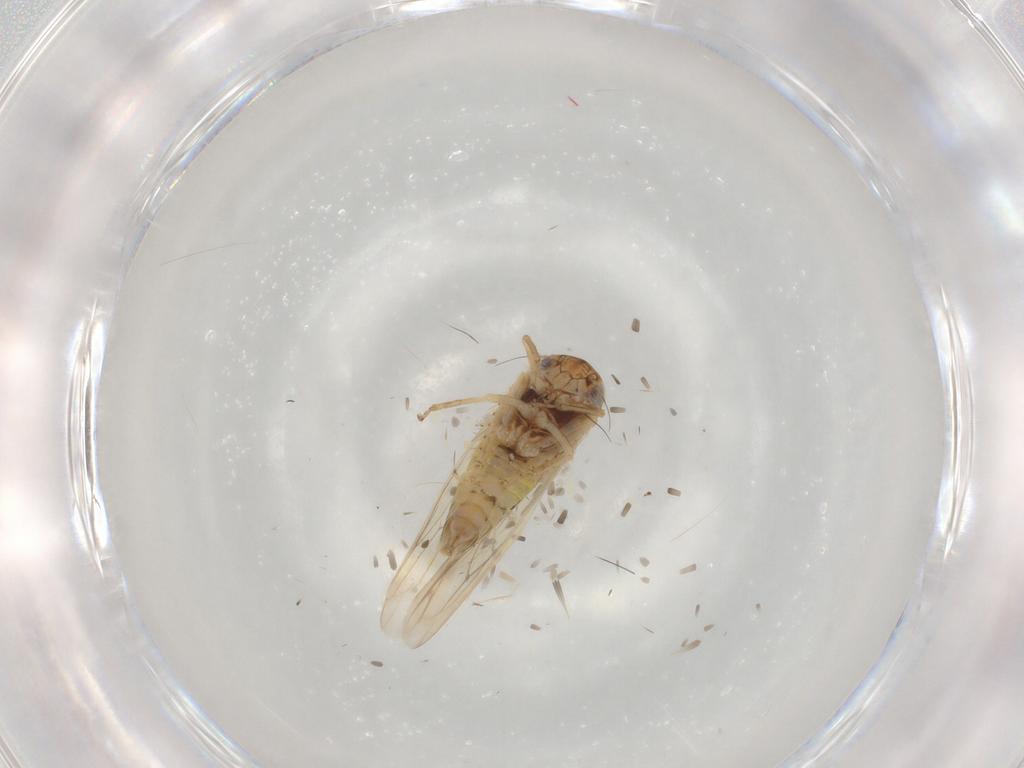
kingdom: Animalia
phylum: Arthropoda
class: Insecta
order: Hemiptera
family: Cicadellidae
